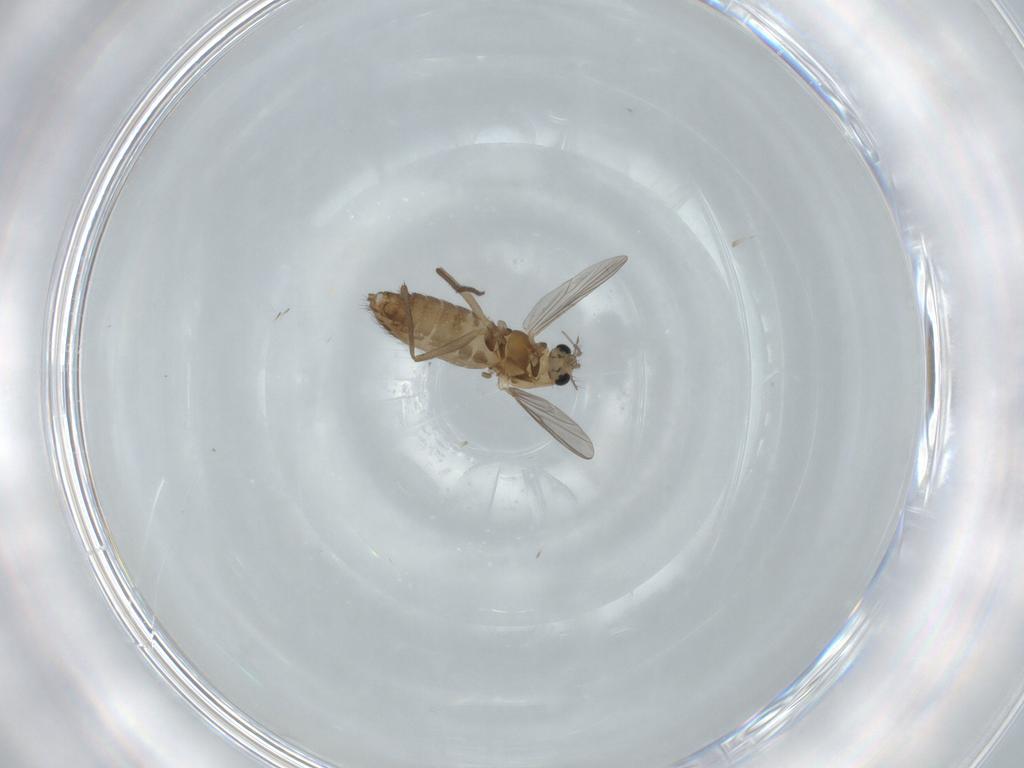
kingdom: Animalia
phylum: Arthropoda
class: Insecta
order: Diptera
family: Chironomidae
